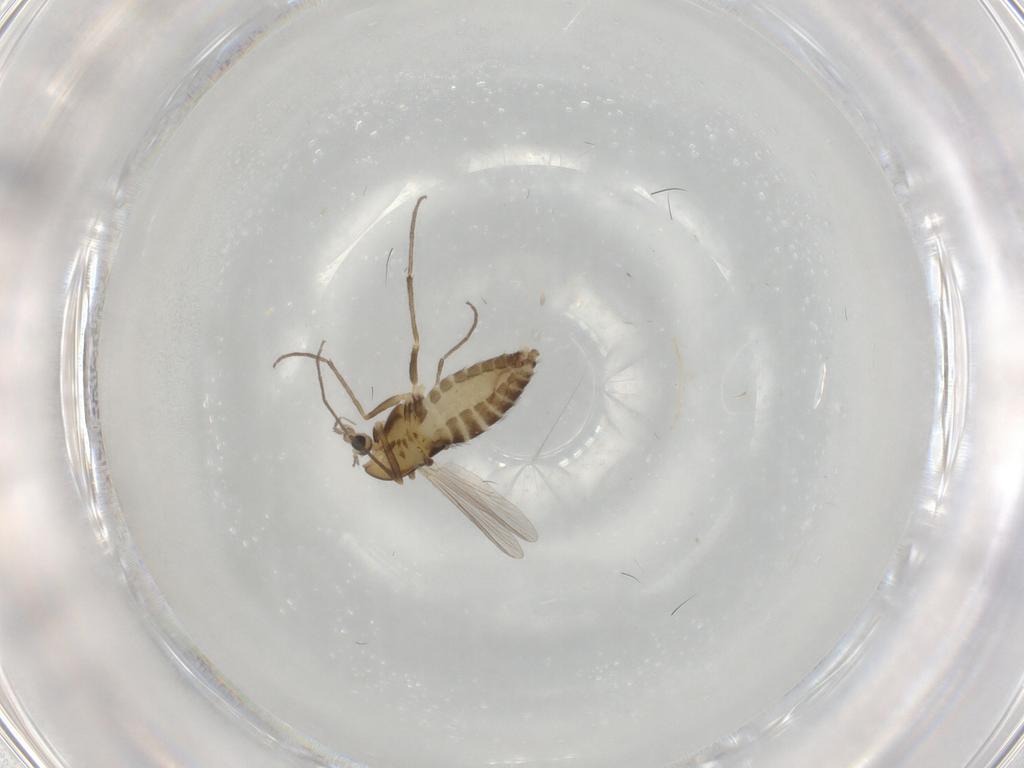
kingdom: Animalia
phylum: Arthropoda
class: Insecta
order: Diptera
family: Chironomidae
